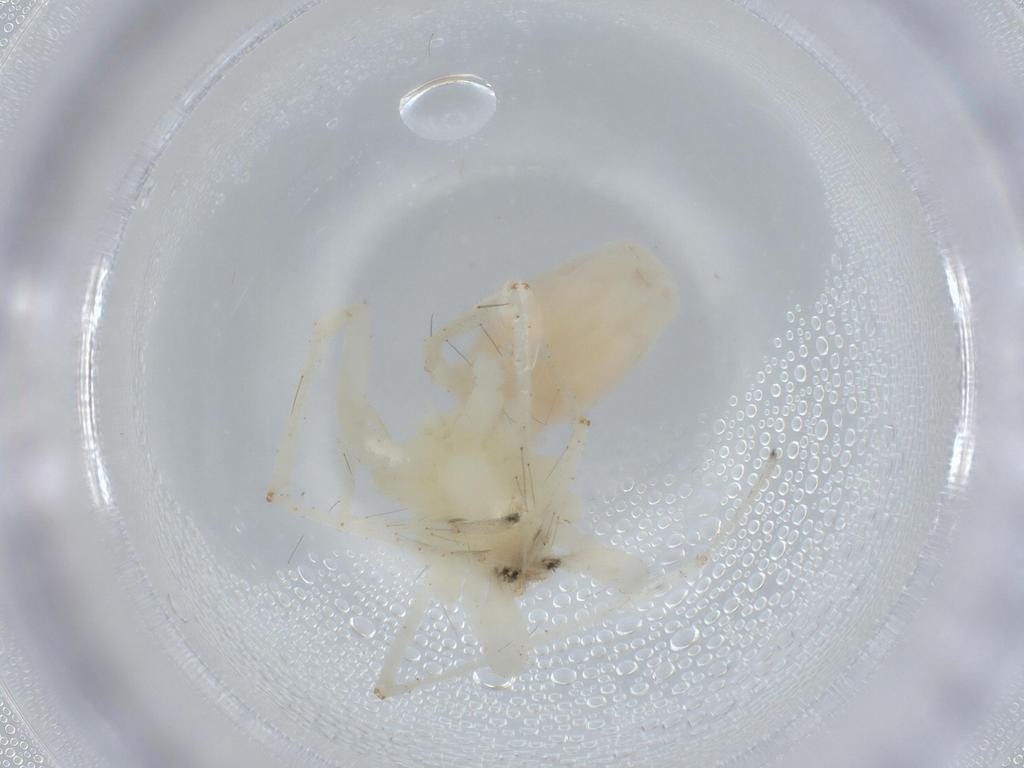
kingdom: Animalia
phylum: Arthropoda
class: Arachnida
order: Araneae
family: Anyphaenidae
